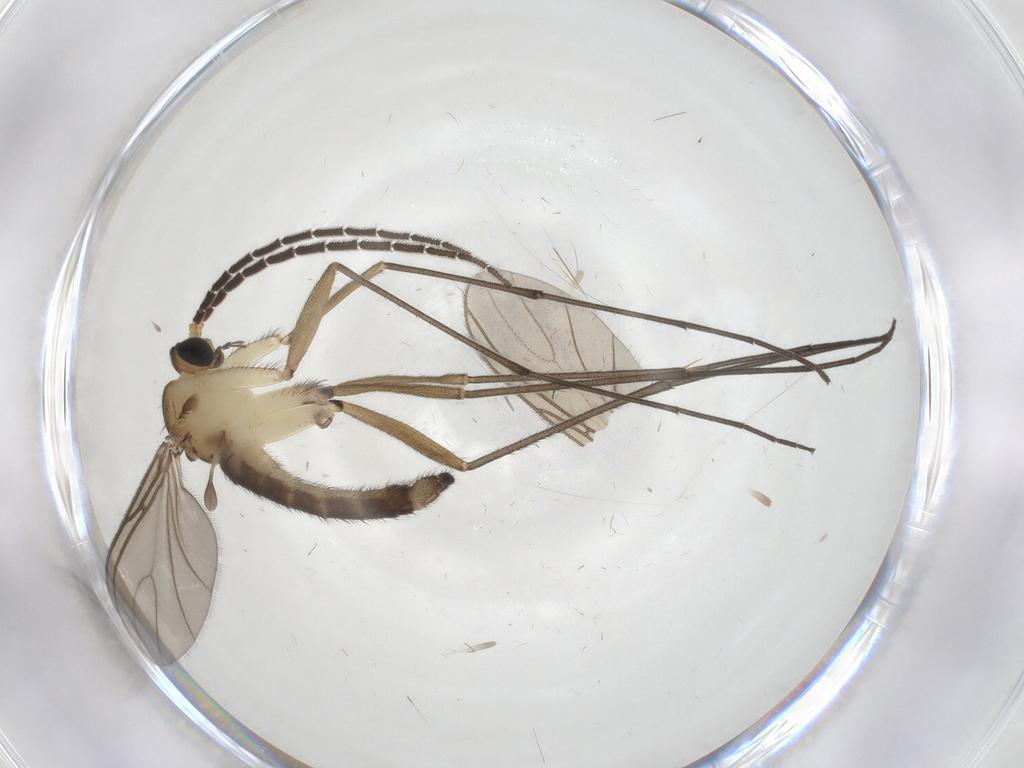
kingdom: Animalia
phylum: Arthropoda
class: Insecta
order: Diptera
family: Sciaridae
